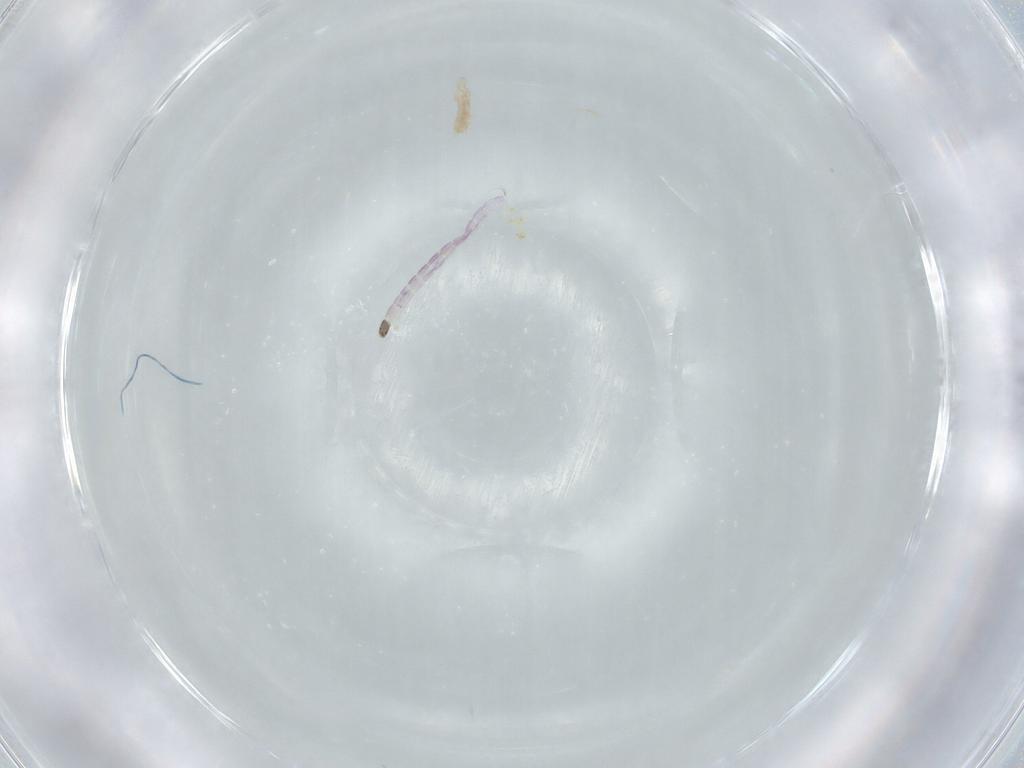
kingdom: Animalia
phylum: Arthropoda
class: Insecta
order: Diptera
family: Chironomidae
